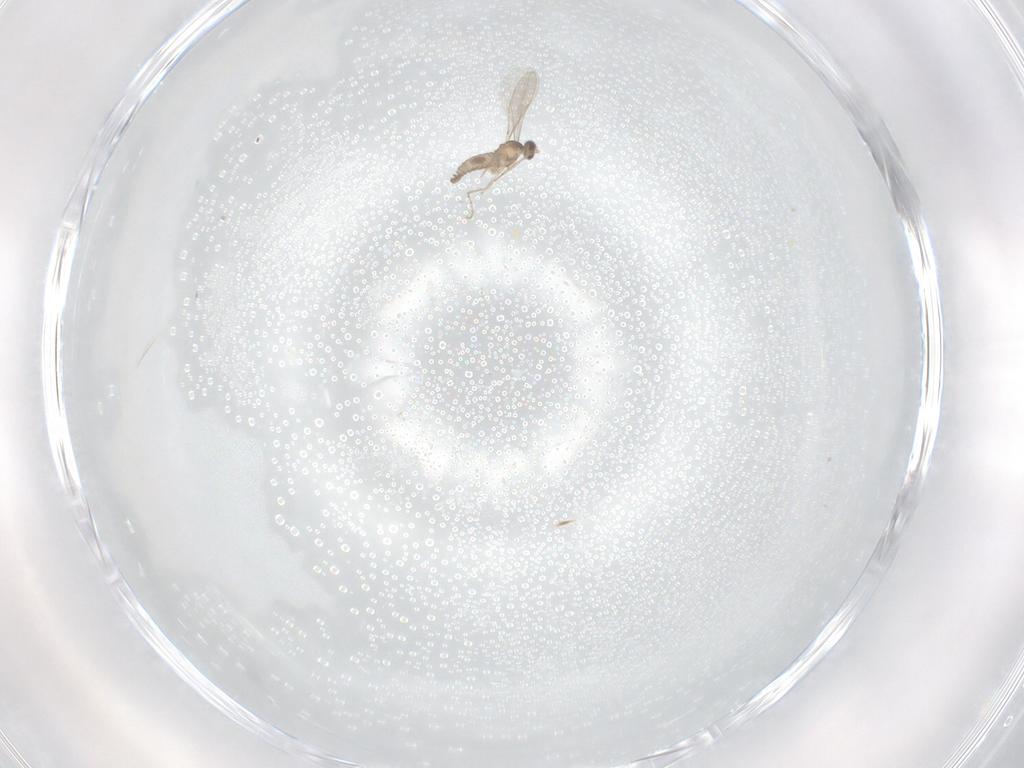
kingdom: Animalia
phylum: Arthropoda
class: Insecta
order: Diptera
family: Cecidomyiidae
